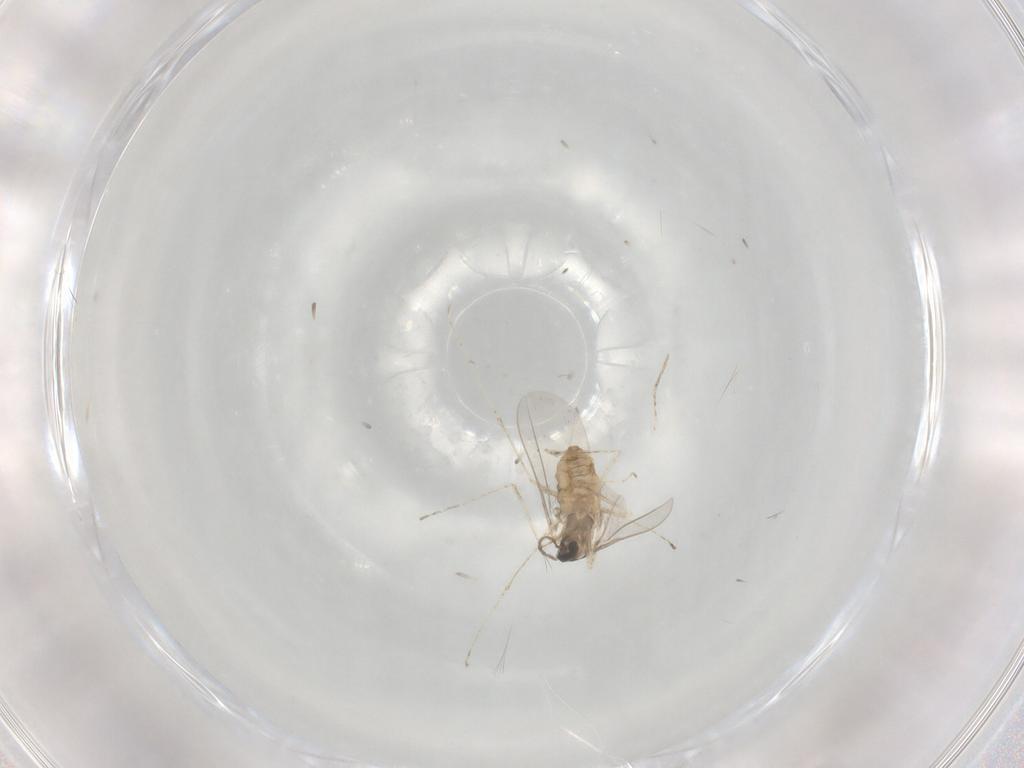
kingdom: Animalia
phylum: Arthropoda
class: Insecta
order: Diptera
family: Cecidomyiidae
